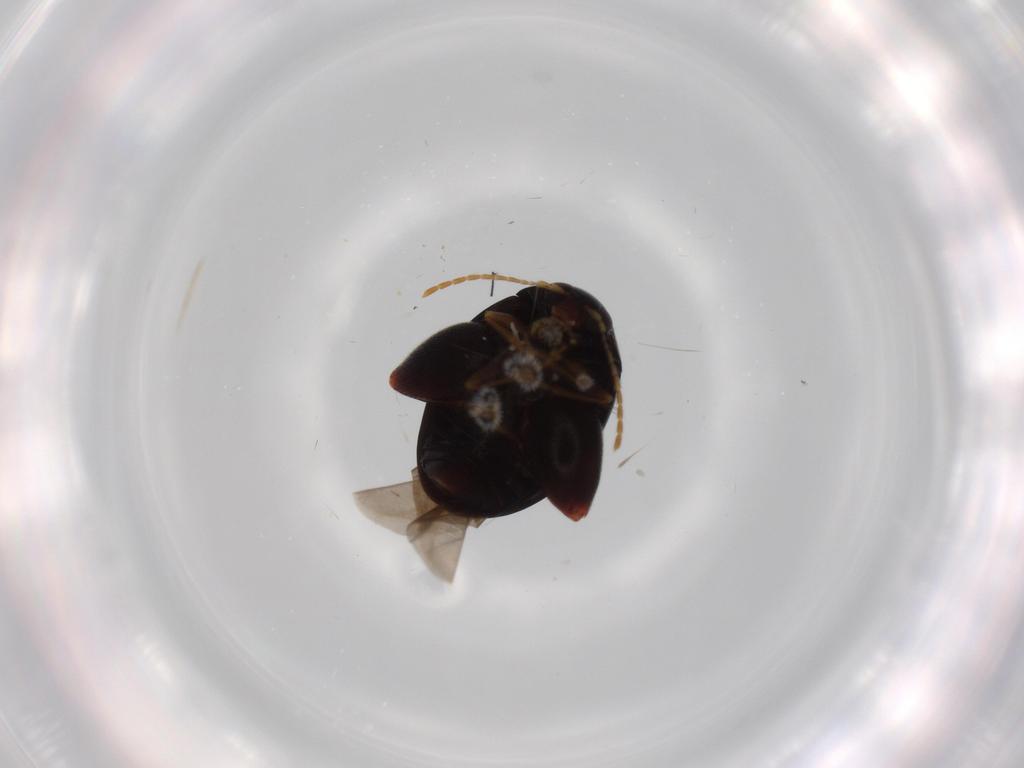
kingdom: Animalia
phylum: Arthropoda
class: Insecta
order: Coleoptera
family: Chrysomelidae
